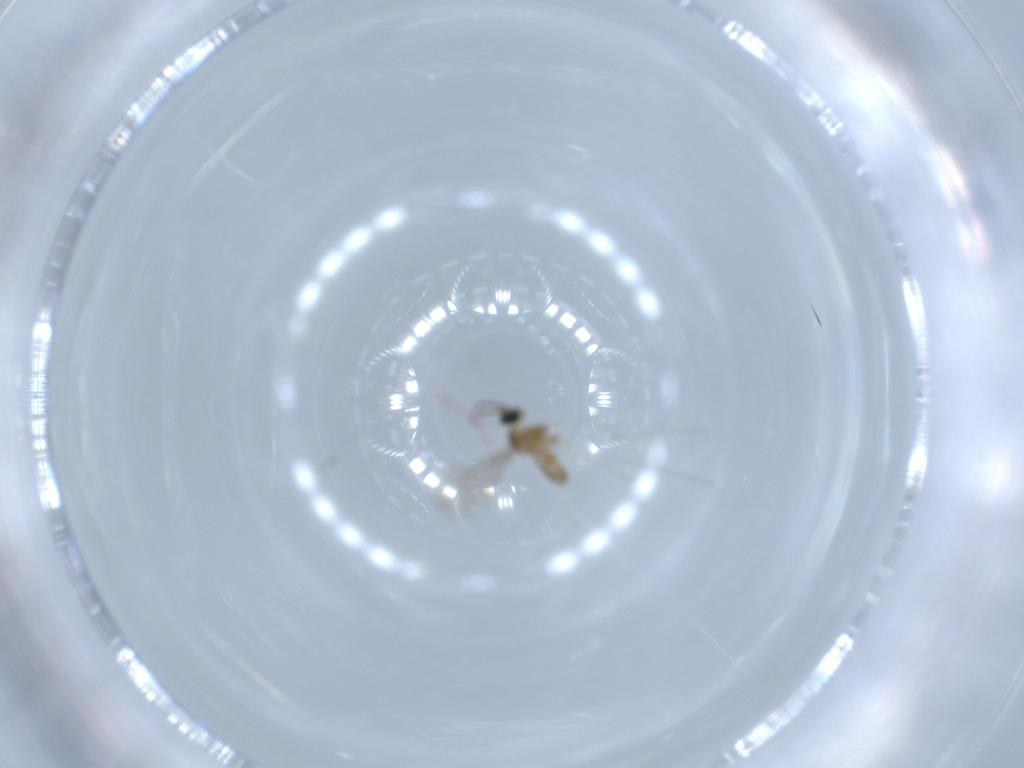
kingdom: Animalia
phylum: Arthropoda
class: Insecta
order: Diptera
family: Cecidomyiidae
